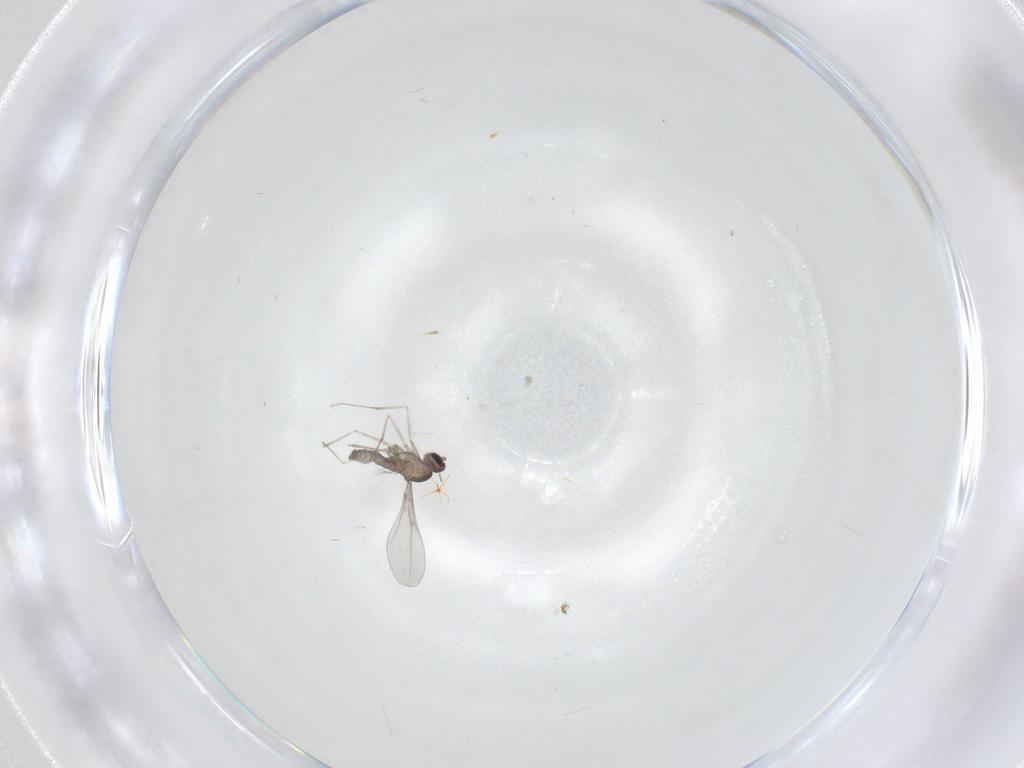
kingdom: Animalia
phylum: Arthropoda
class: Insecta
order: Diptera
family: Cecidomyiidae
